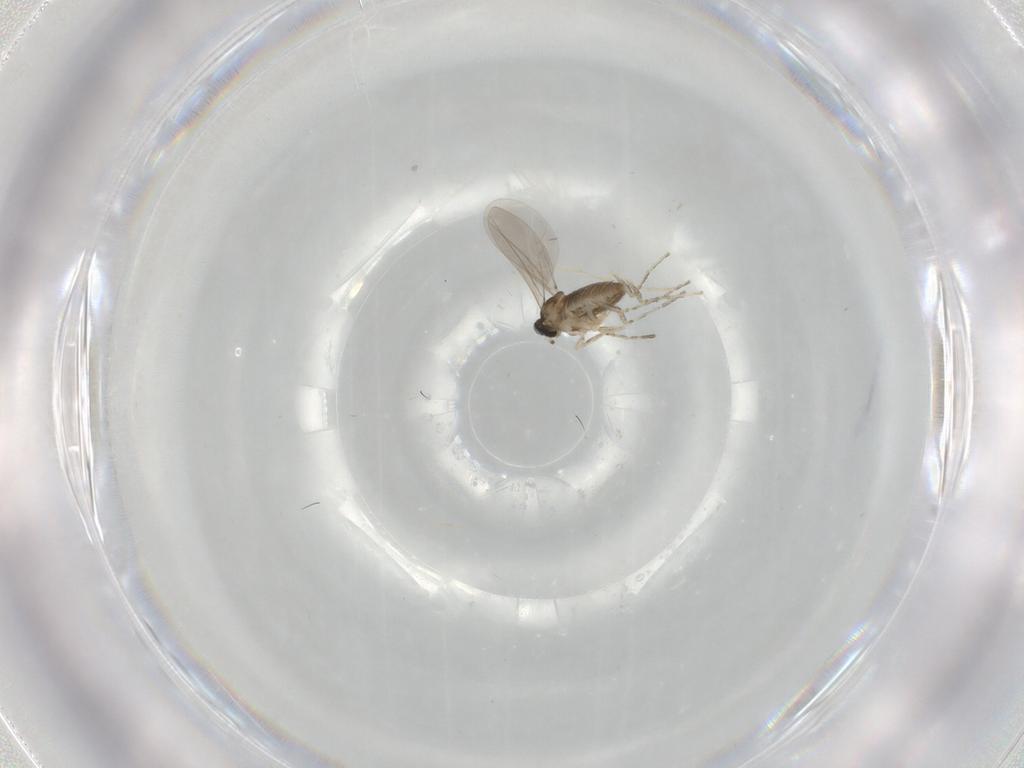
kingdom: Animalia
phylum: Arthropoda
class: Insecta
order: Diptera
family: Cecidomyiidae
